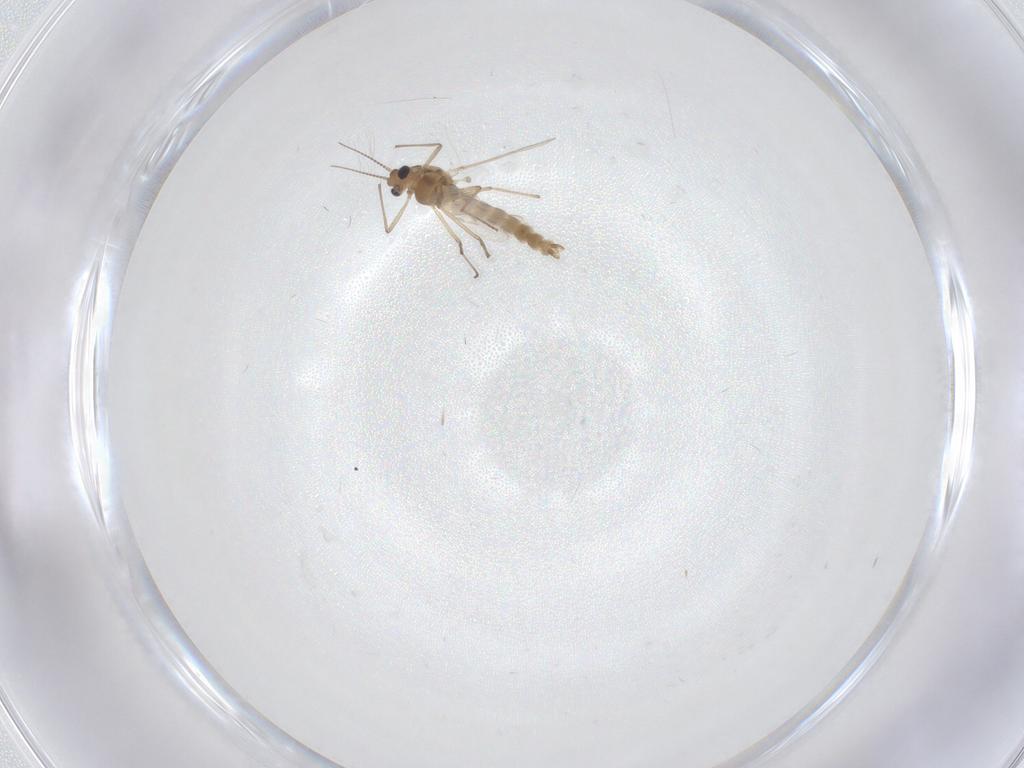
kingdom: Animalia
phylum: Arthropoda
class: Insecta
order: Diptera
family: Chironomidae
